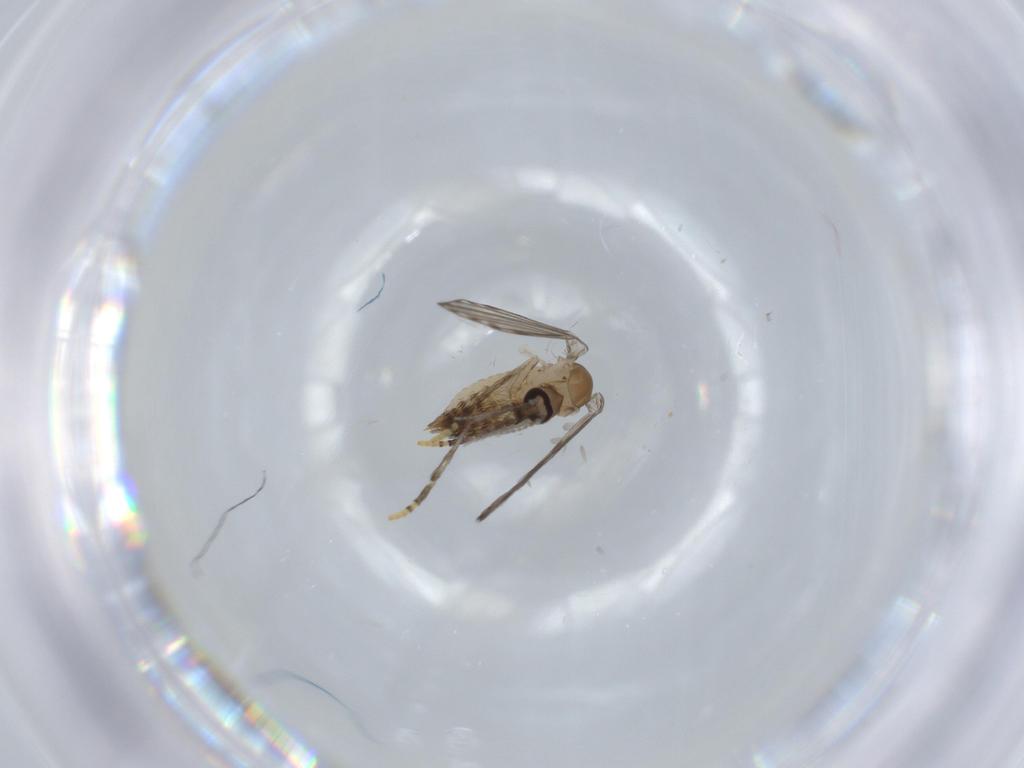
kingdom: Animalia
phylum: Arthropoda
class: Insecta
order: Diptera
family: Psychodidae
